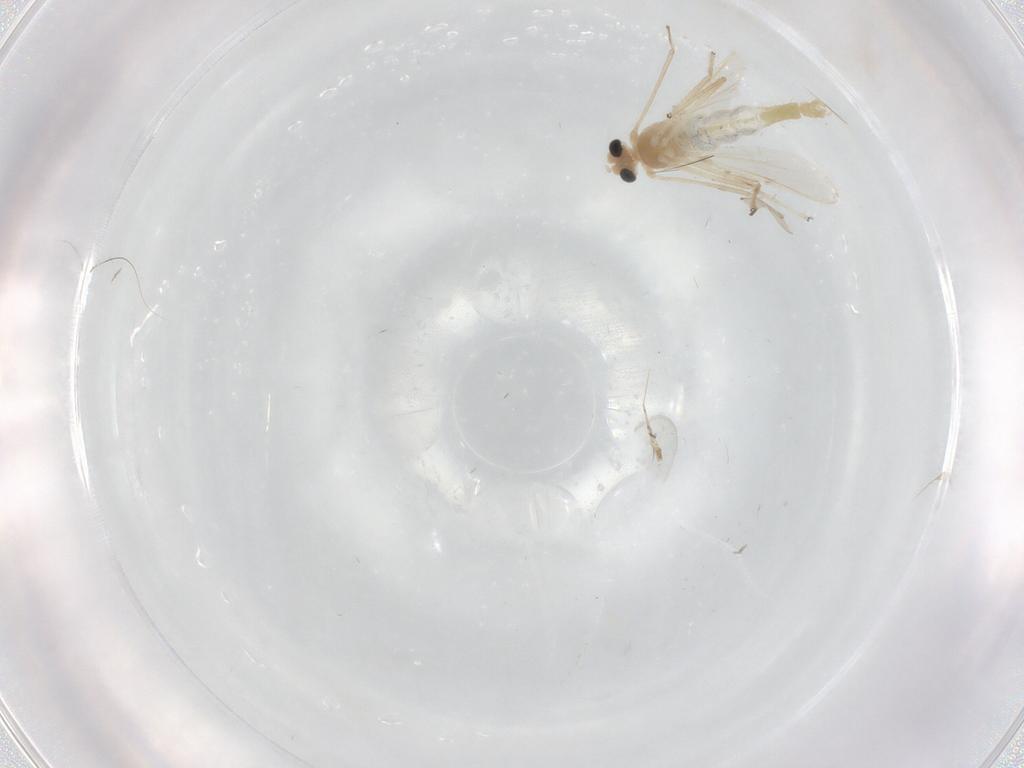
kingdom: Animalia
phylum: Arthropoda
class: Insecta
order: Diptera
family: Chironomidae
